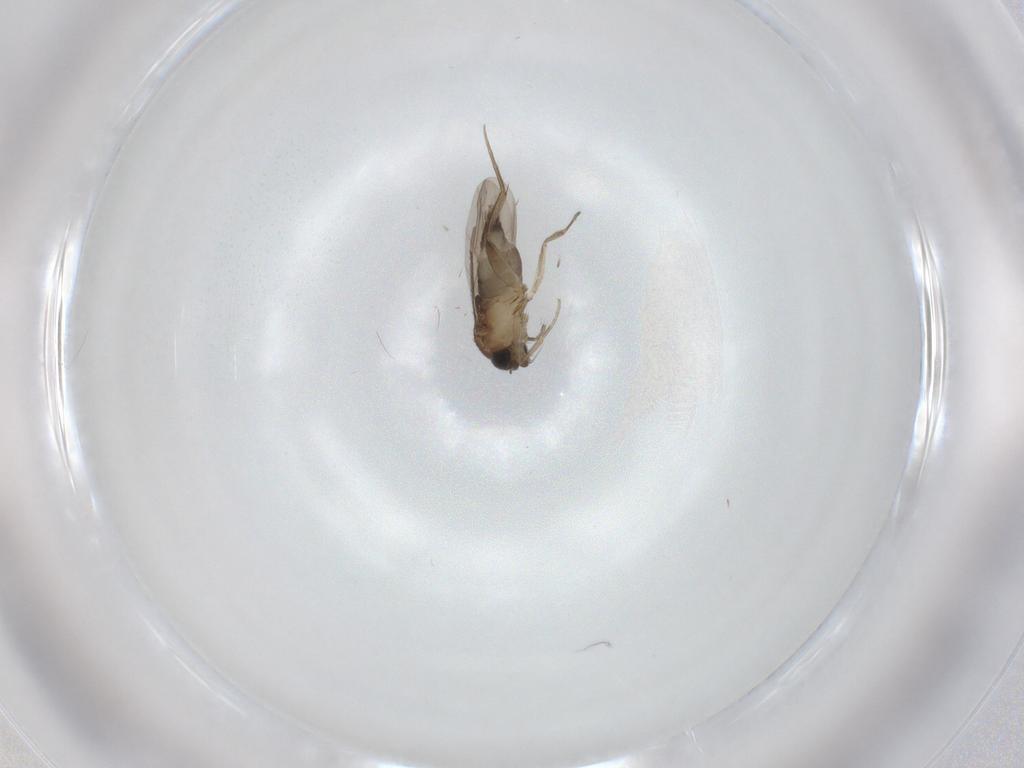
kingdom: Animalia
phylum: Arthropoda
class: Insecta
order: Diptera
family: Phoridae
